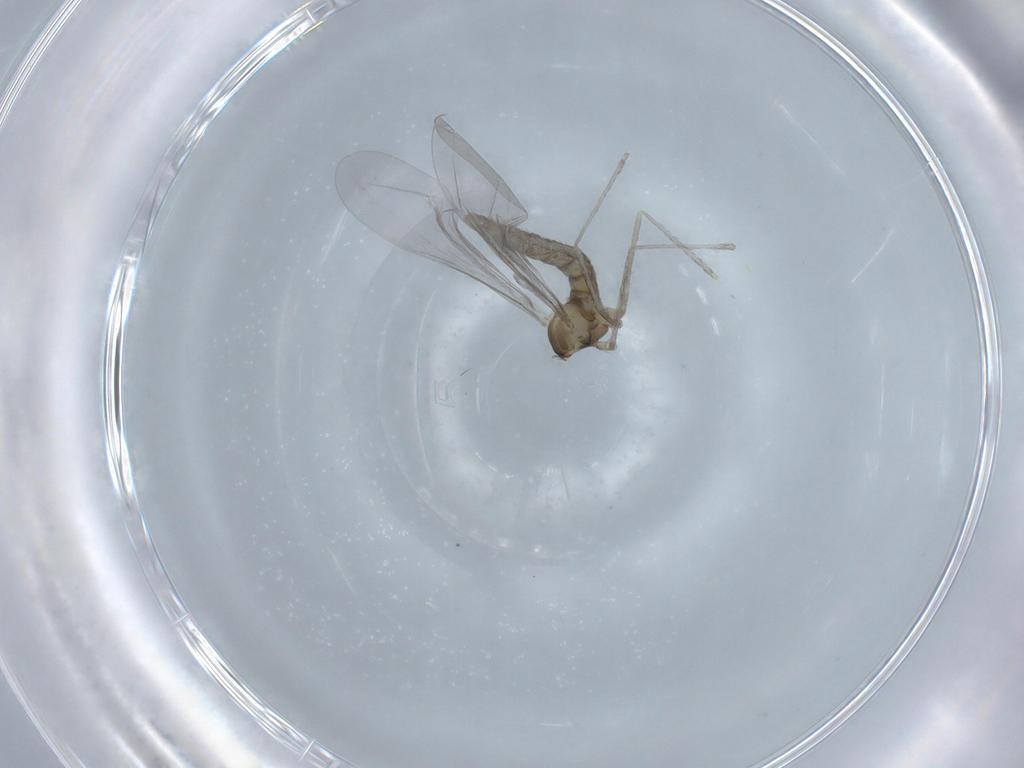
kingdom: Animalia
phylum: Arthropoda
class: Insecta
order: Diptera
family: Cecidomyiidae
